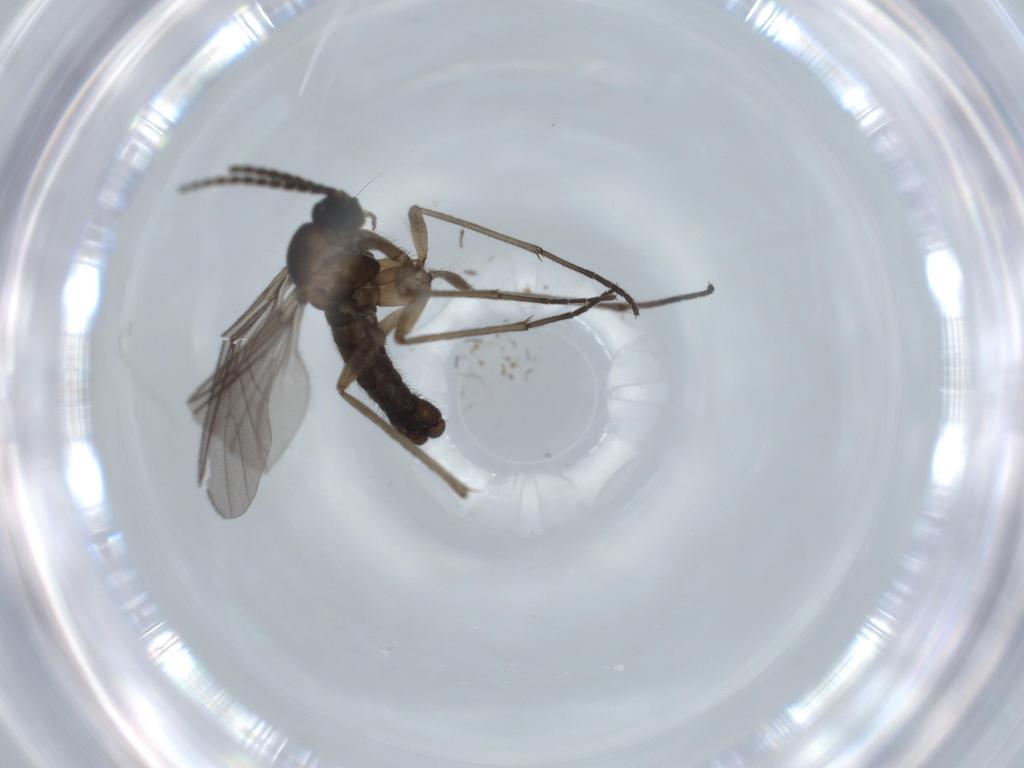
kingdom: Animalia
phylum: Arthropoda
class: Insecta
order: Diptera
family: Sciaridae
